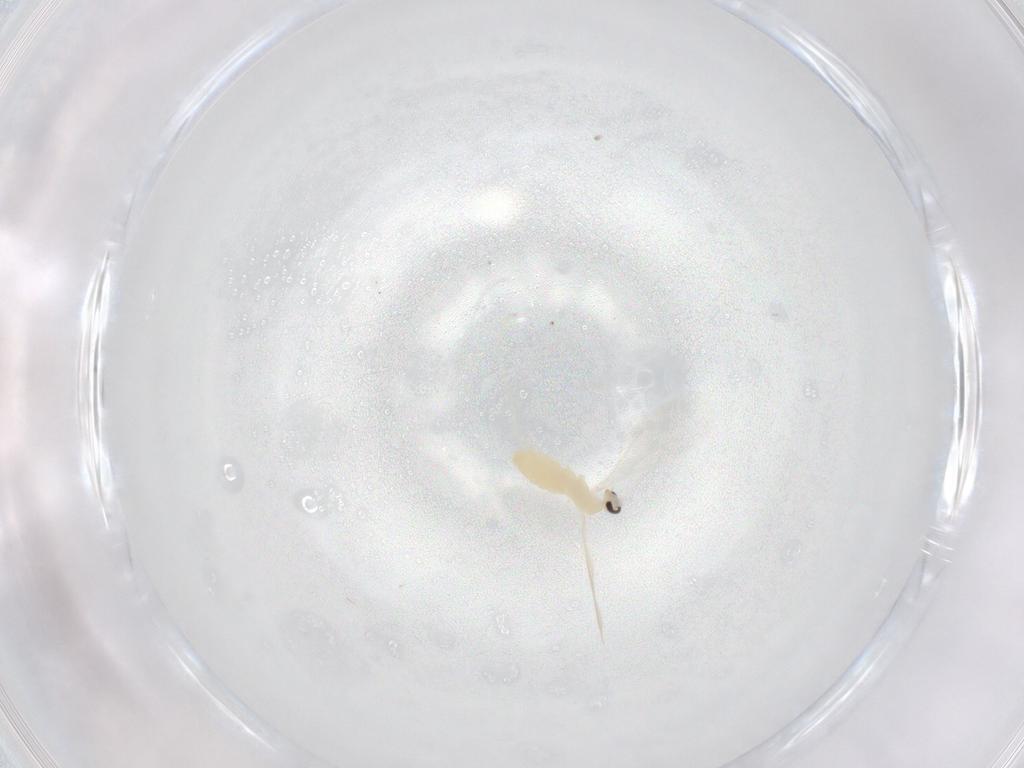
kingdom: Animalia
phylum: Arthropoda
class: Insecta
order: Diptera
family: Cecidomyiidae
